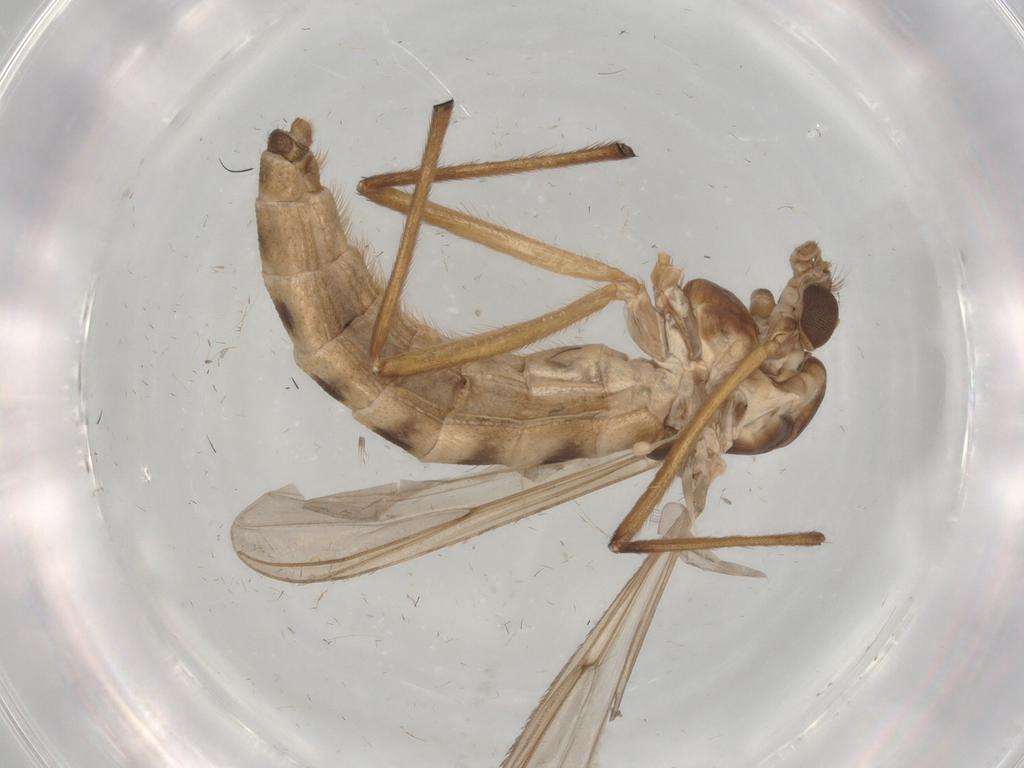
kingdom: Animalia
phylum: Arthropoda
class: Insecta
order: Diptera
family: Chironomidae
